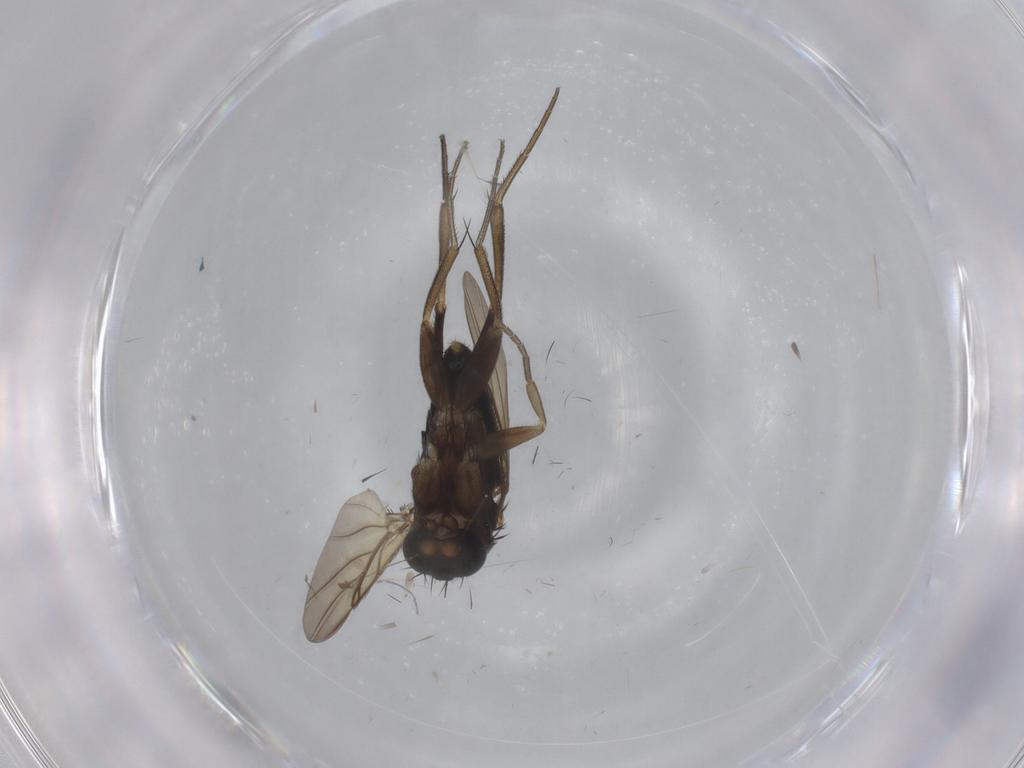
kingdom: Animalia
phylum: Arthropoda
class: Insecta
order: Diptera
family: Phoridae
